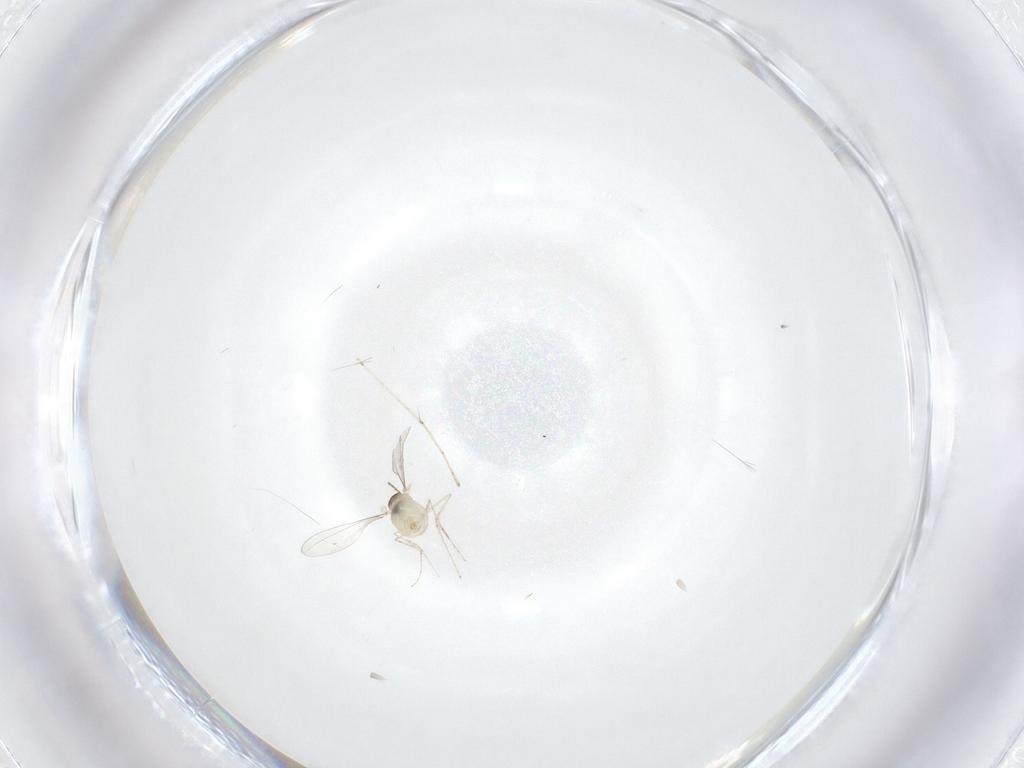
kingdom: Animalia
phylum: Arthropoda
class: Insecta
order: Diptera
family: Cecidomyiidae
